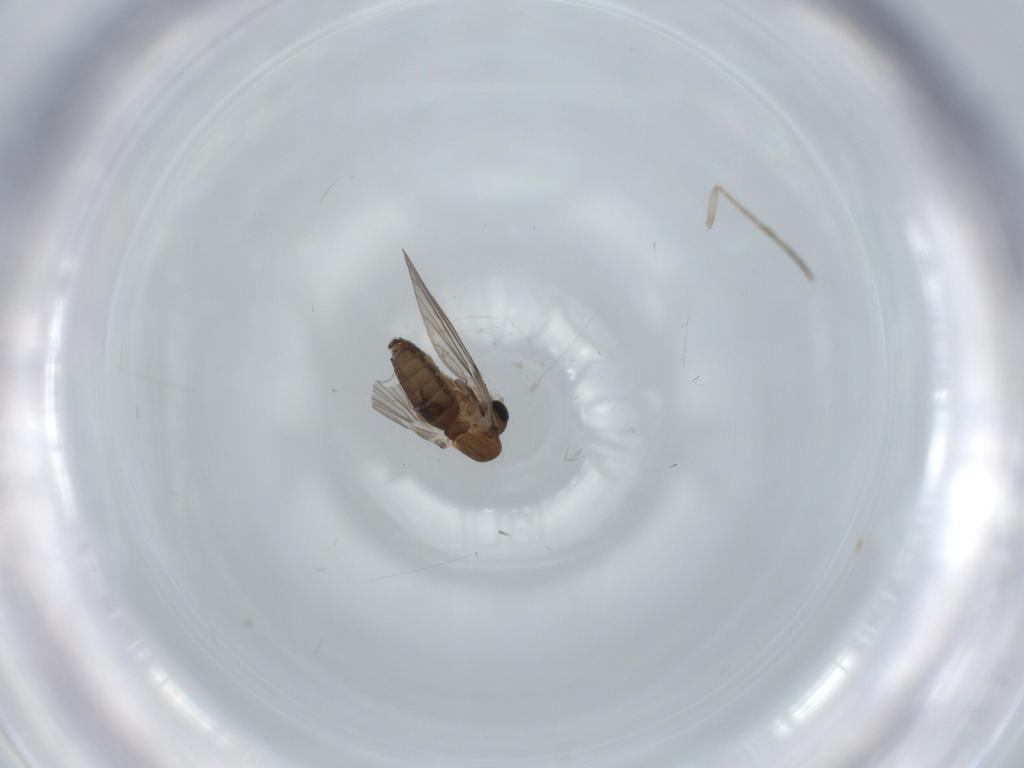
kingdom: Animalia
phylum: Arthropoda
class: Insecta
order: Diptera
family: Psychodidae
